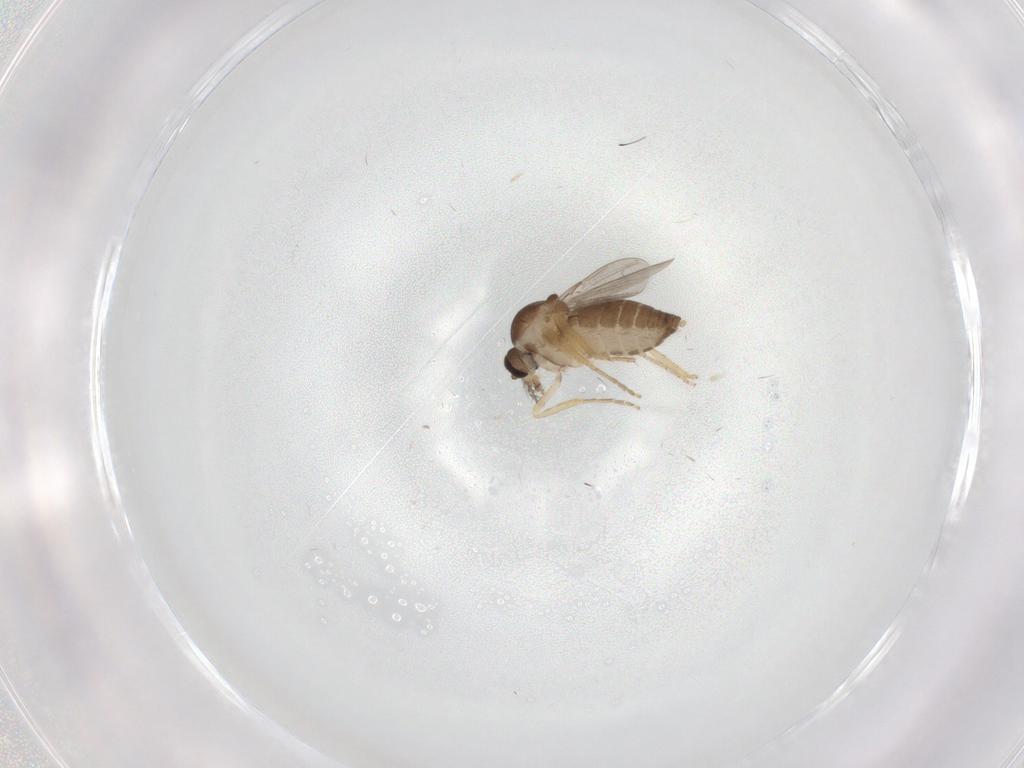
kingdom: Animalia
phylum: Arthropoda
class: Insecta
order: Diptera
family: Ceratopogonidae
